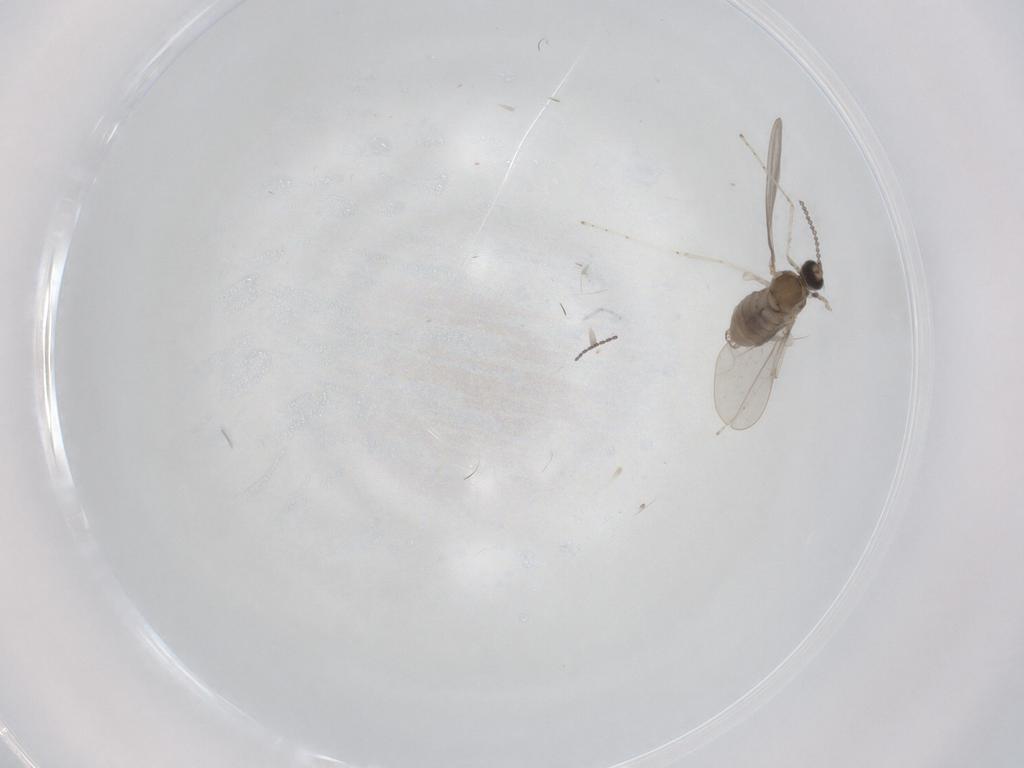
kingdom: Animalia
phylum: Arthropoda
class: Insecta
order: Diptera
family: Cecidomyiidae
